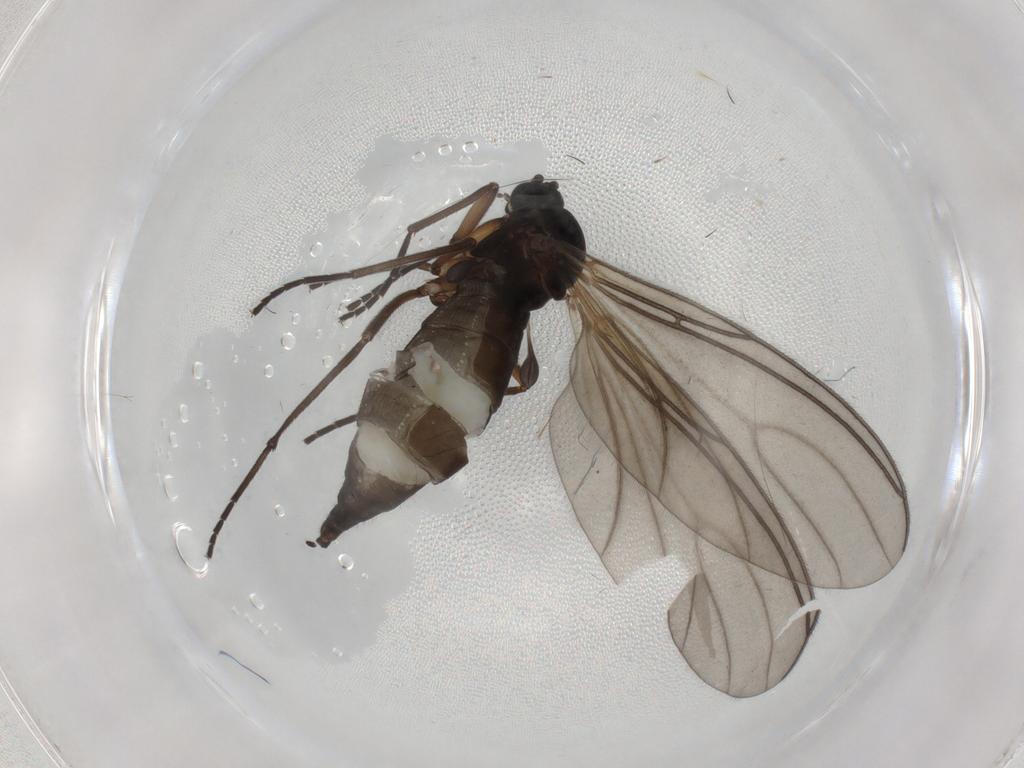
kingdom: Animalia
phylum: Arthropoda
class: Insecta
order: Diptera
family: Sciaridae
